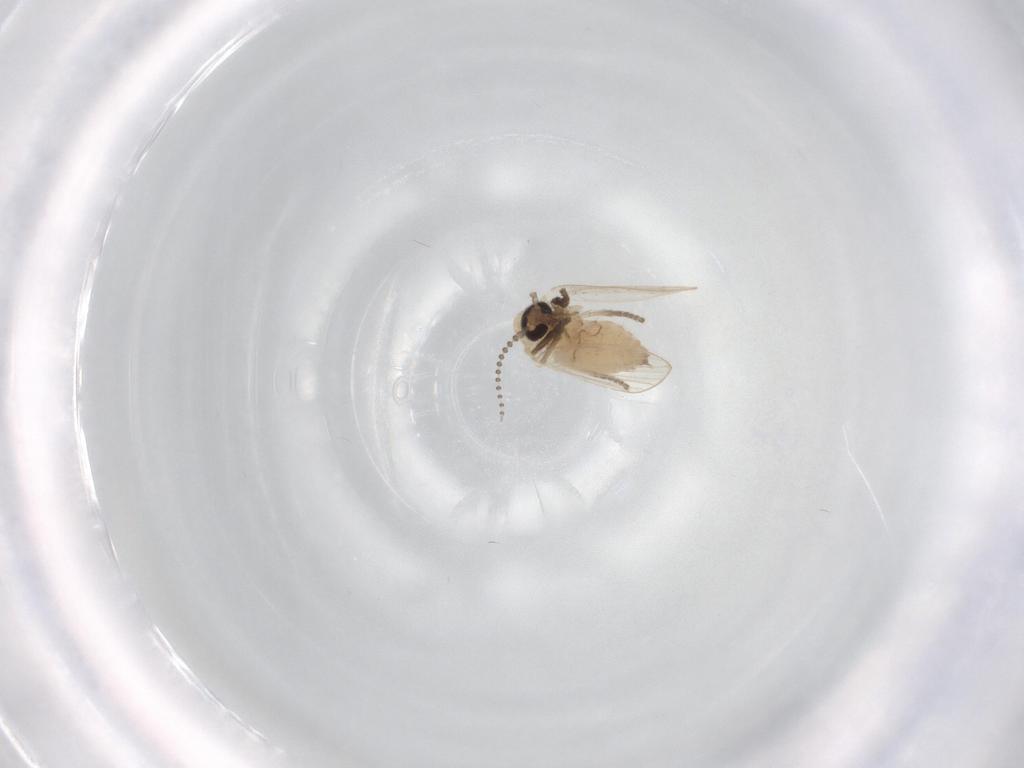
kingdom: Animalia
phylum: Arthropoda
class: Insecta
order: Diptera
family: Psychodidae
